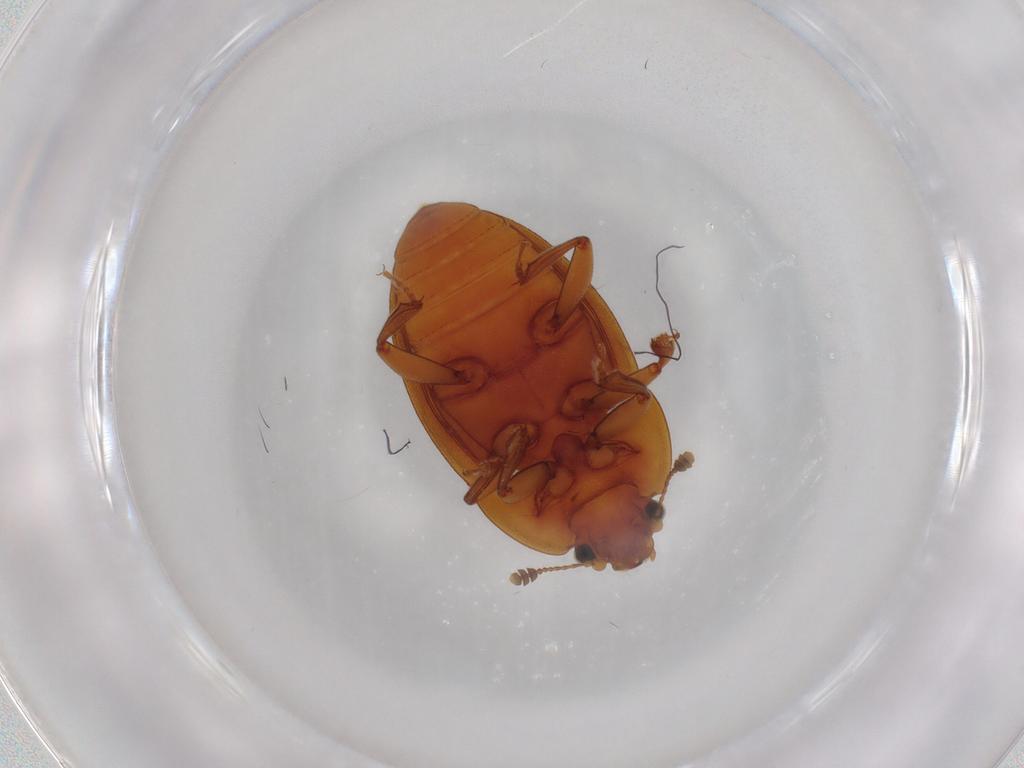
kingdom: Animalia
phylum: Arthropoda
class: Insecta
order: Coleoptera
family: Nitidulidae
